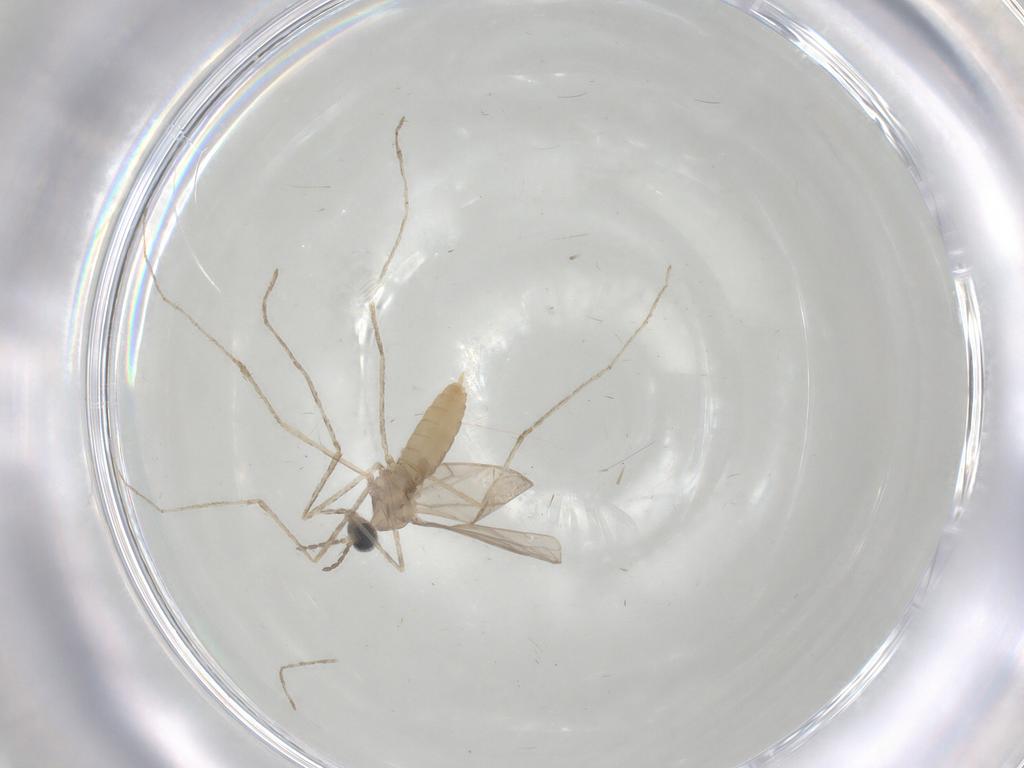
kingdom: Animalia
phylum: Arthropoda
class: Insecta
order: Diptera
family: Cecidomyiidae
